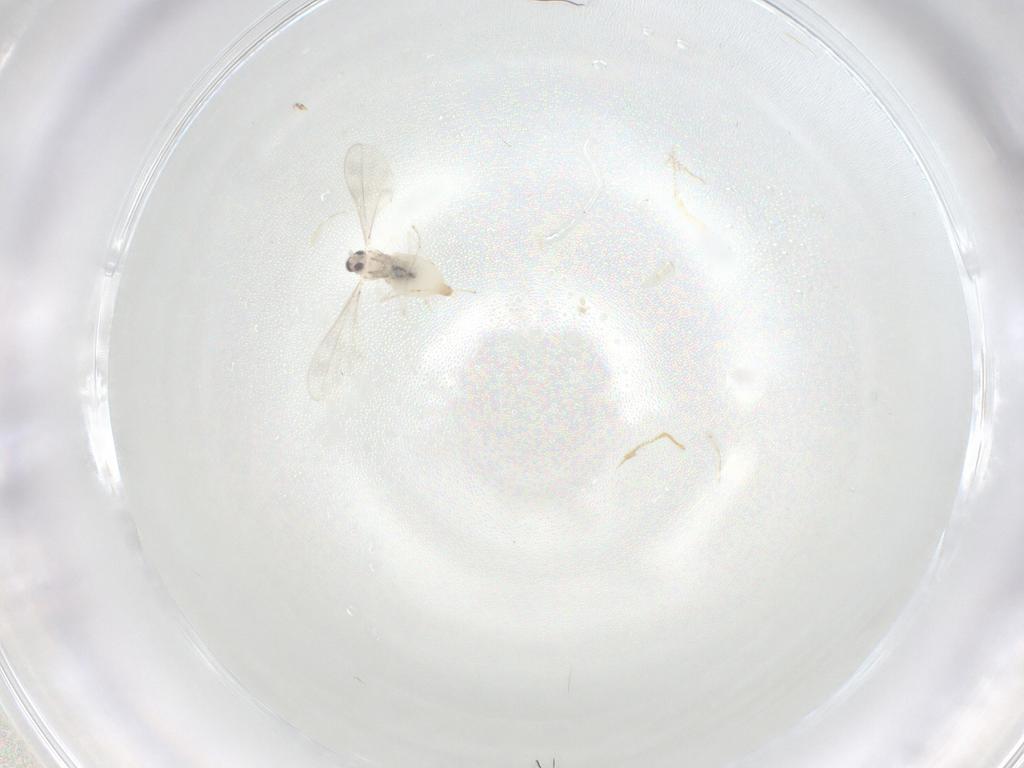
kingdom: Animalia
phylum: Arthropoda
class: Insecta
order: Diptera
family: Cecidomyiidae
